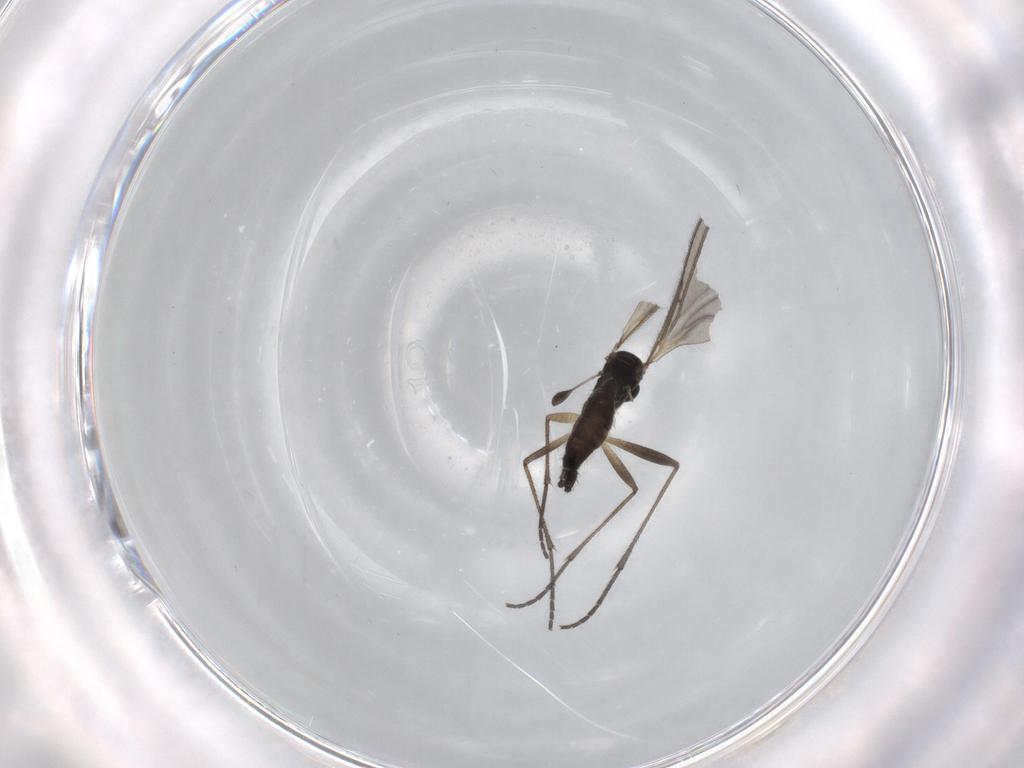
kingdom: Animalia
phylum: Arthropoda
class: Insecta
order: Diptera
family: Sciaridae
